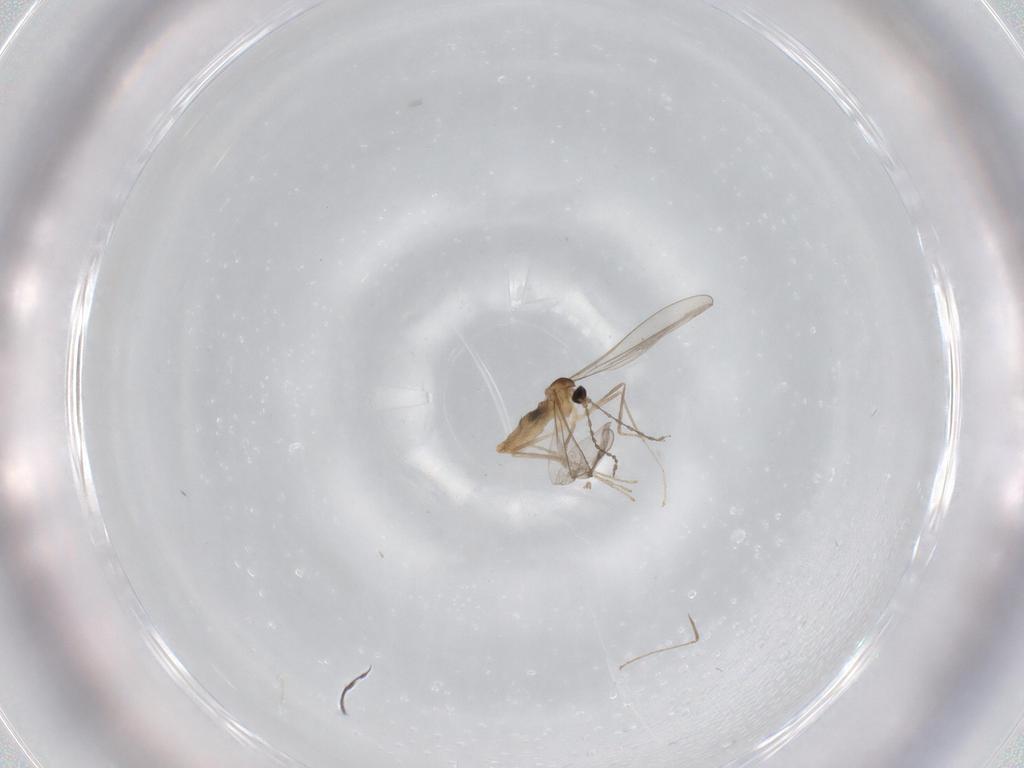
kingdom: Animalia
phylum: Arthropoda
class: Insecta
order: Diptera
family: Cecidomyiidae
